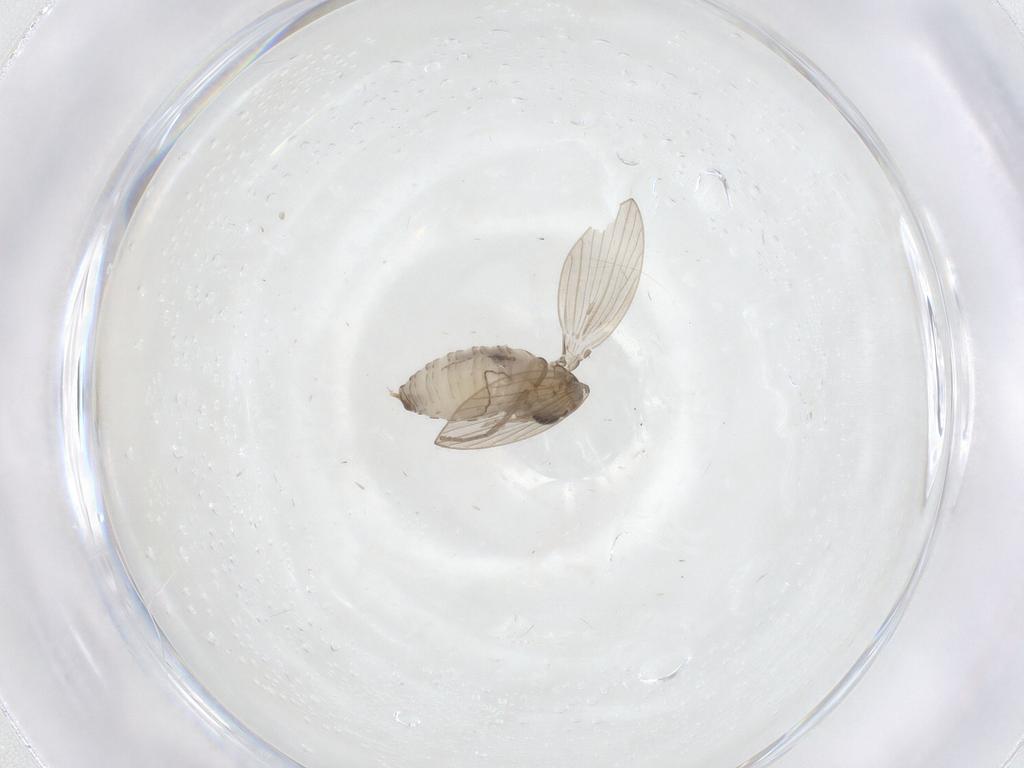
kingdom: Animalia
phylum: Arthropoda
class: Insecta
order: Diptera
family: Psychodidae
